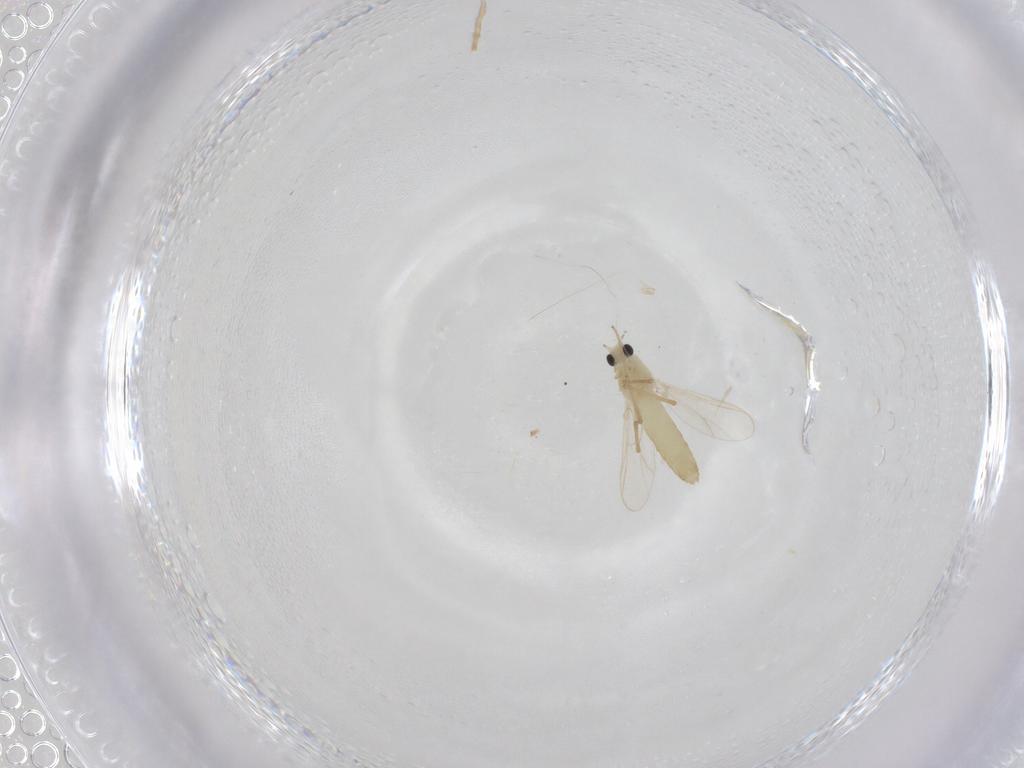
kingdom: Animalia
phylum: Arthropoda
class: Insecta
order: Diptera
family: Chironomidae
